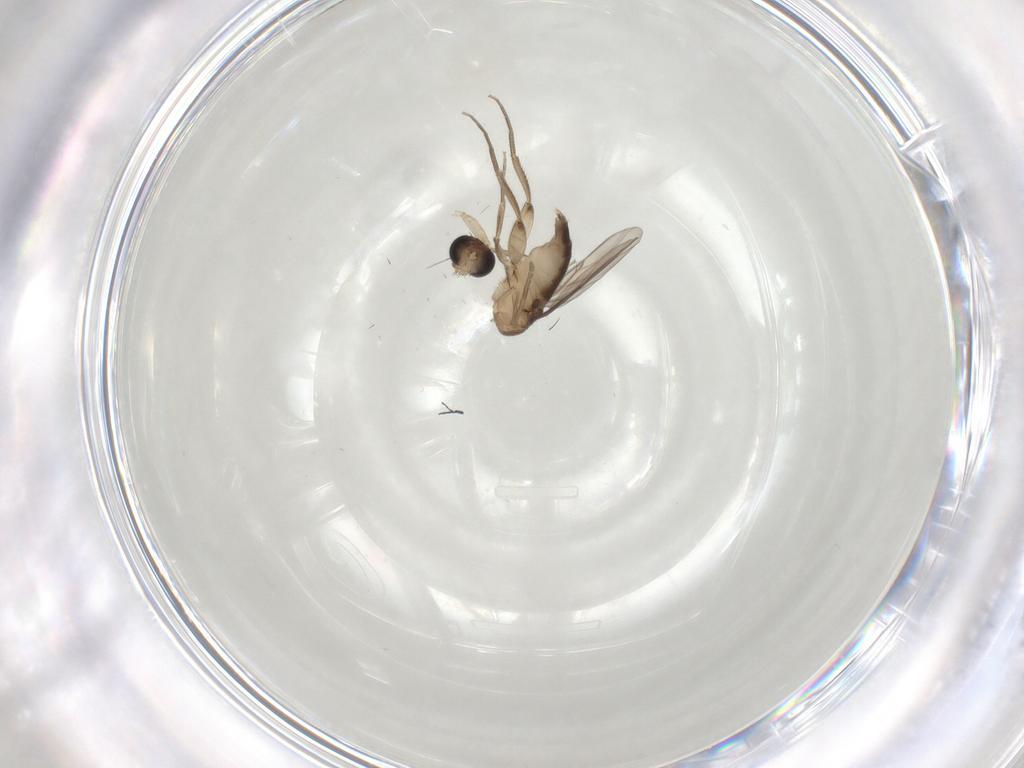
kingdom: Animalia
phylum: Arthropoda
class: Insecta
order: Diptera
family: Phoridae
